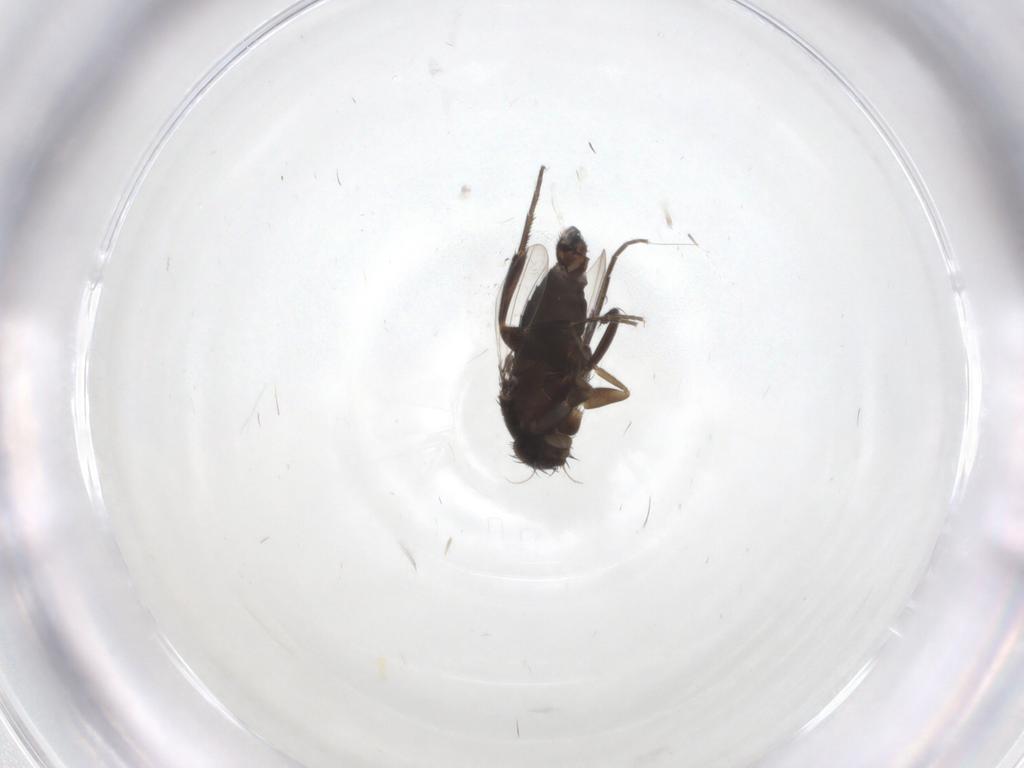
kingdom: Animalia
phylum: Arthropoda
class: Insecta
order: Diptera
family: Phoridae
